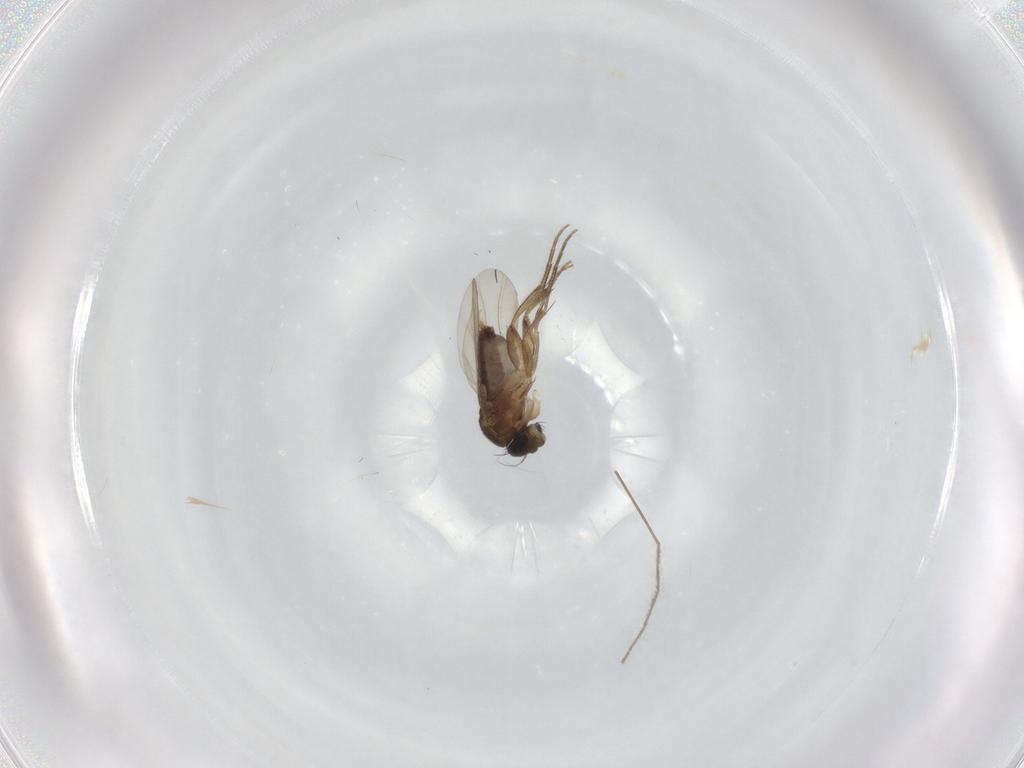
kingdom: Animalia
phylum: Arthropoda
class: Insecta
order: Diptera
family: Phoridae
